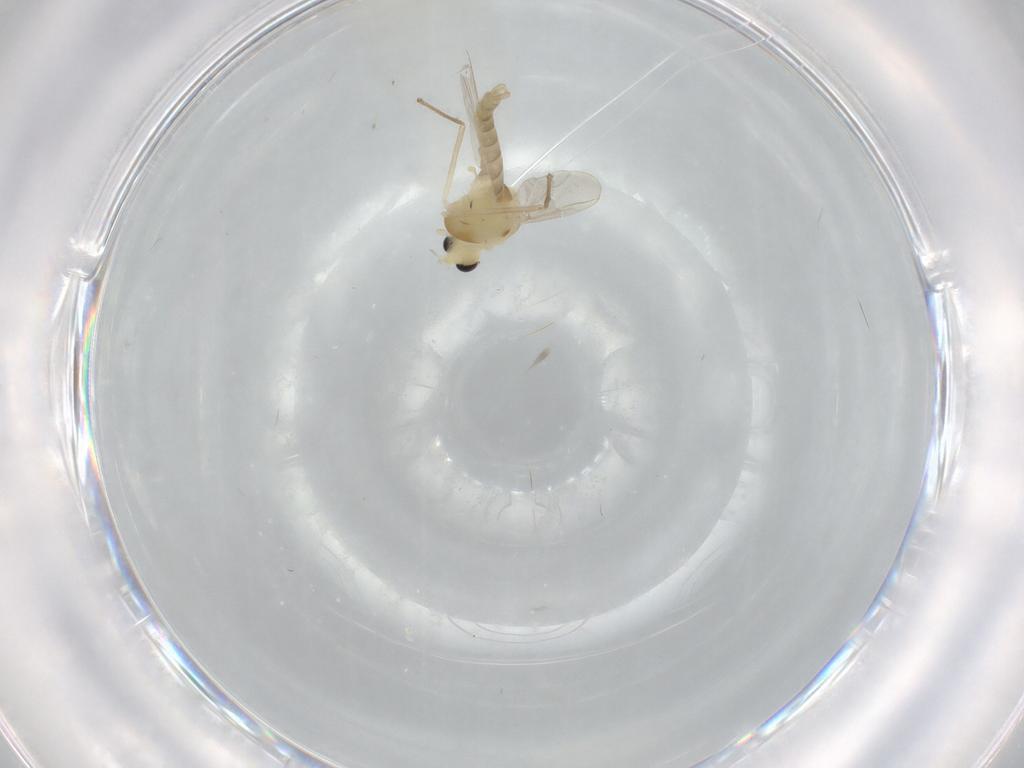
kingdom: Animalia
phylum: Arthropoda
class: Insecta
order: Diptera
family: Chironomidae
